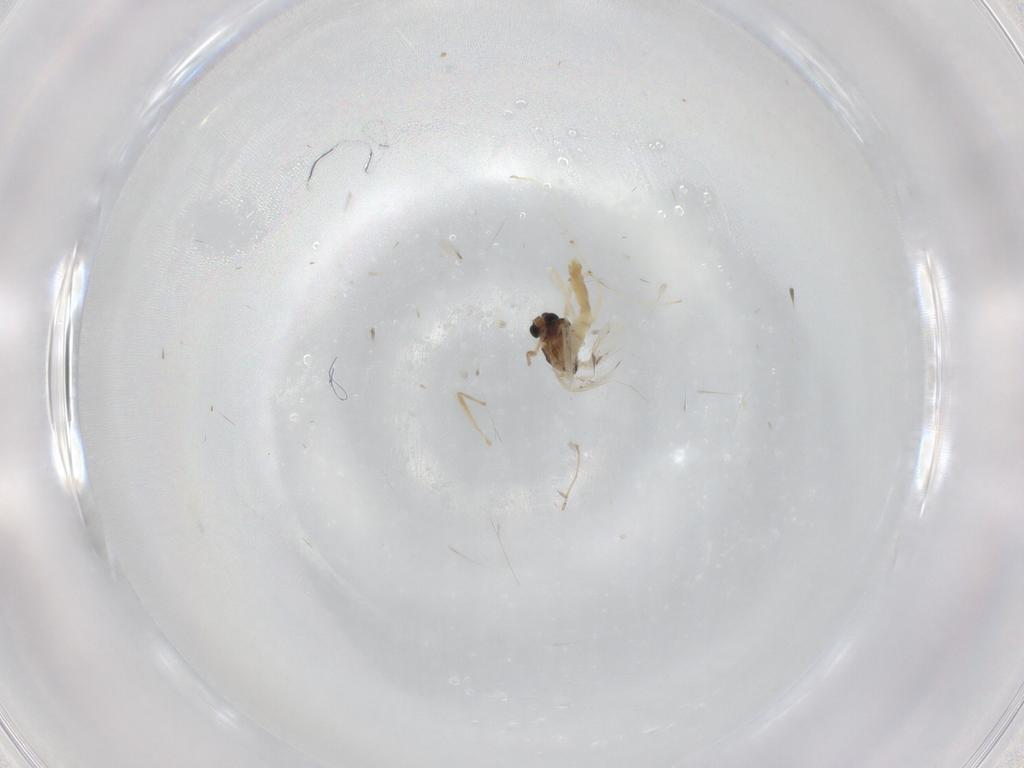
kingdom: Animalia
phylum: Arthropoda
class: Insecta
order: Diptera
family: Chironomidae
